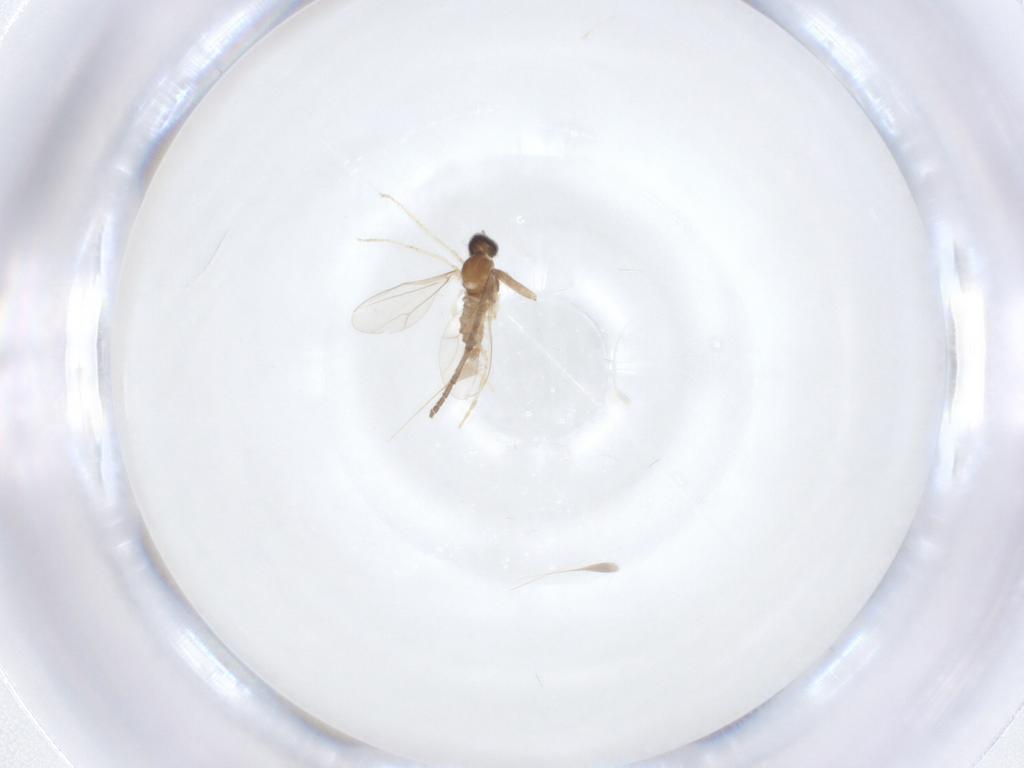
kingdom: Animalia
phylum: Arthropoda
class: Insecta
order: Diptera
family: Cecidomyiidae
